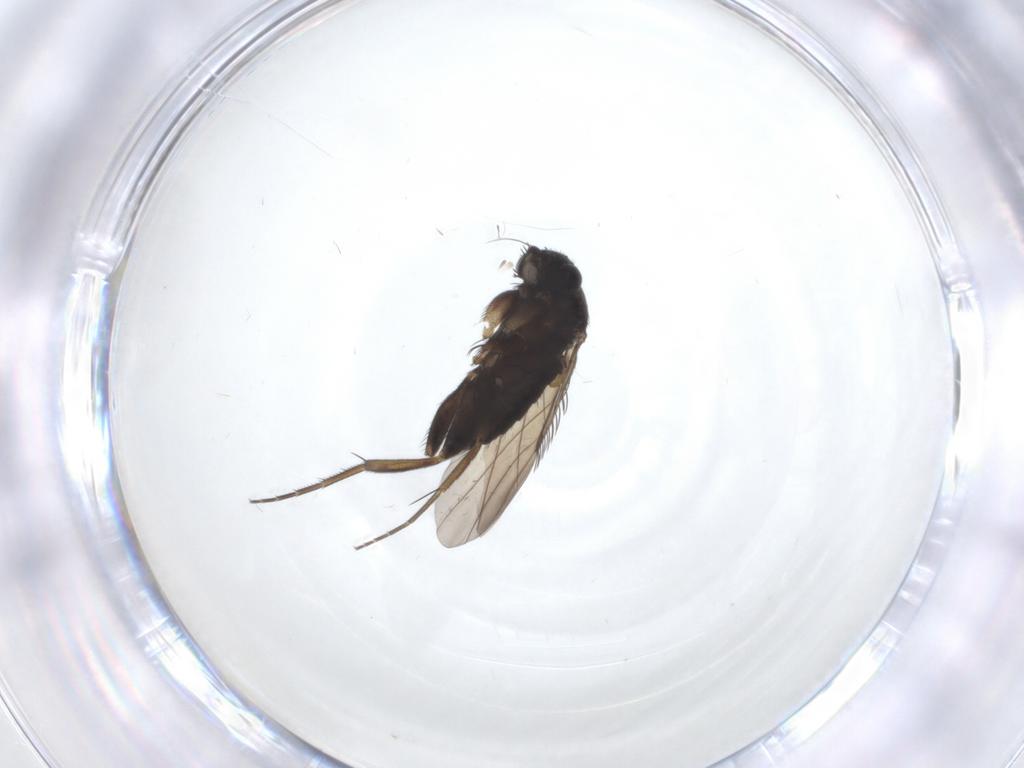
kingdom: Animalia
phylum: Arthropoda
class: Insecta
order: Diptera
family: Phoridae
